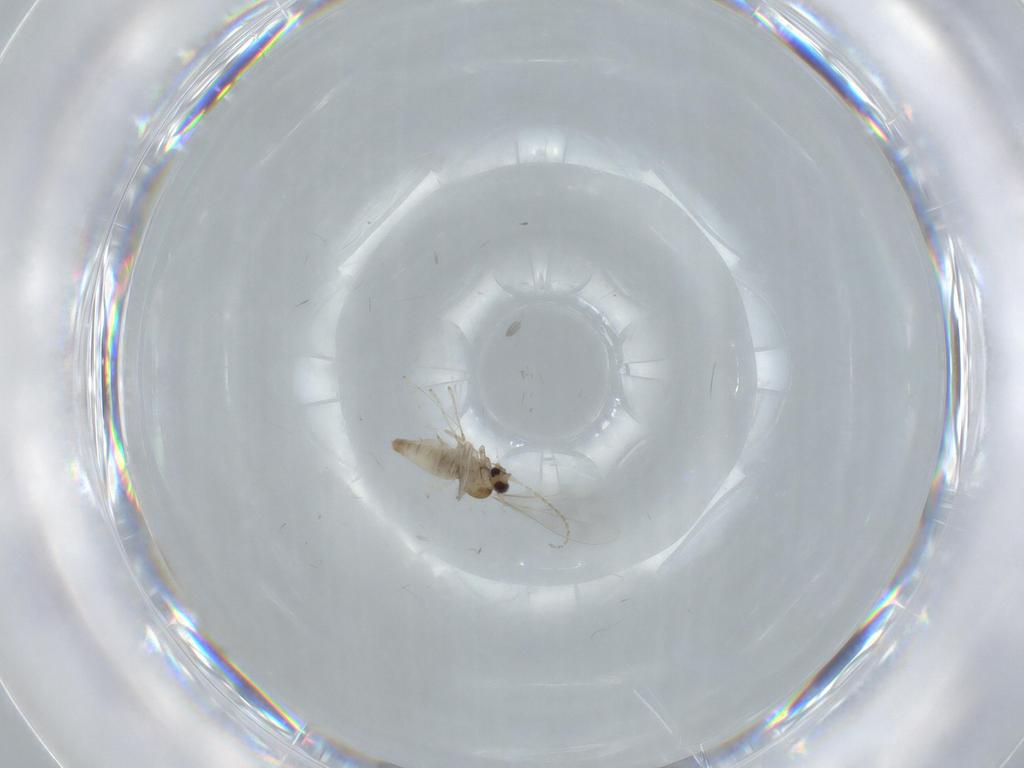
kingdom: Animalia
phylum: Arthropoda
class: Insecta
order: Diptera
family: Cecidomyiidae
